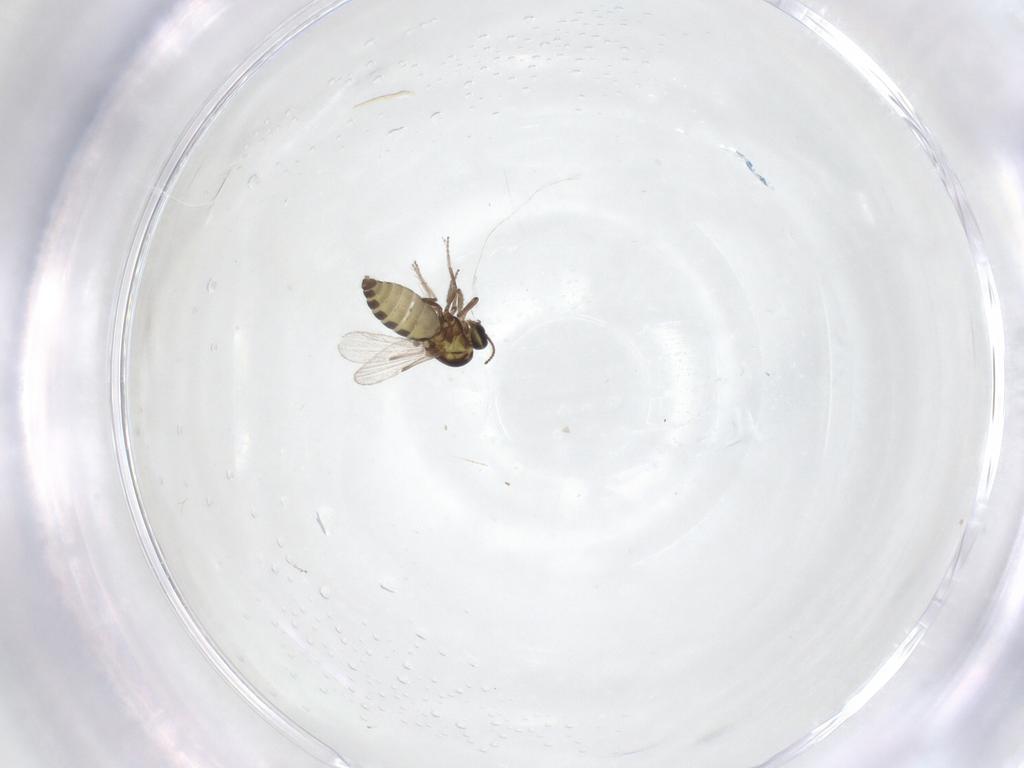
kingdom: Animalia
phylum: Arthropoda
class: Insecta
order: Diptera
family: Ceratopogonidae
